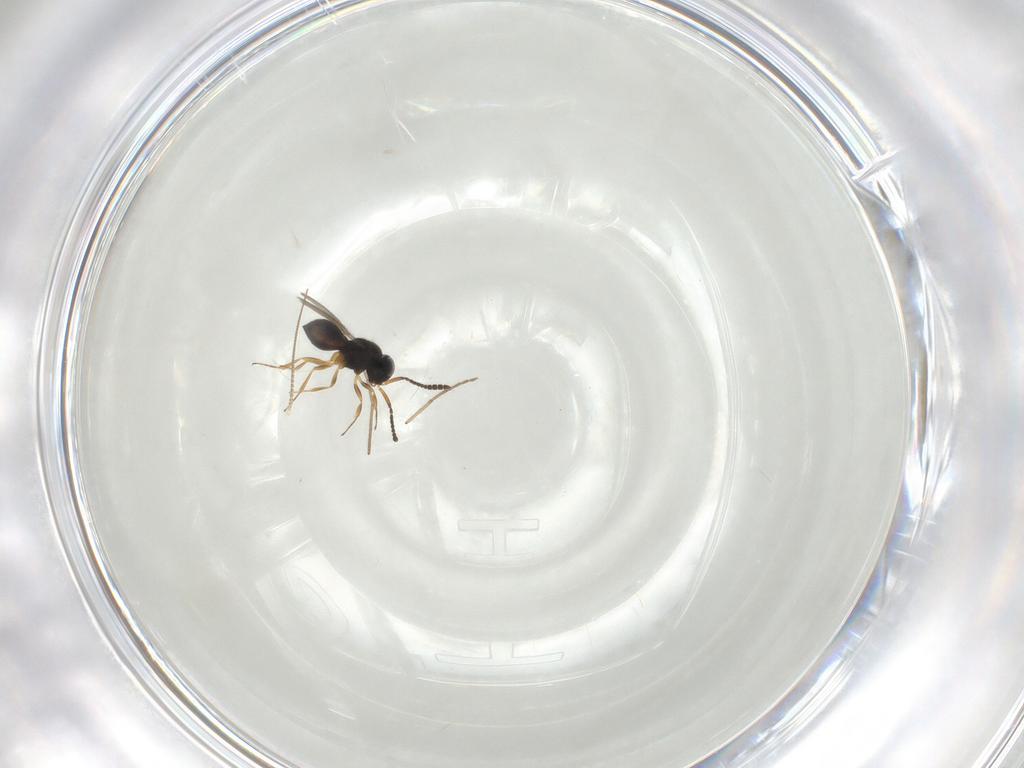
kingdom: Animalia
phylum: Arthropoda
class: Insecta
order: Hymenoptera
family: Scelionidae
